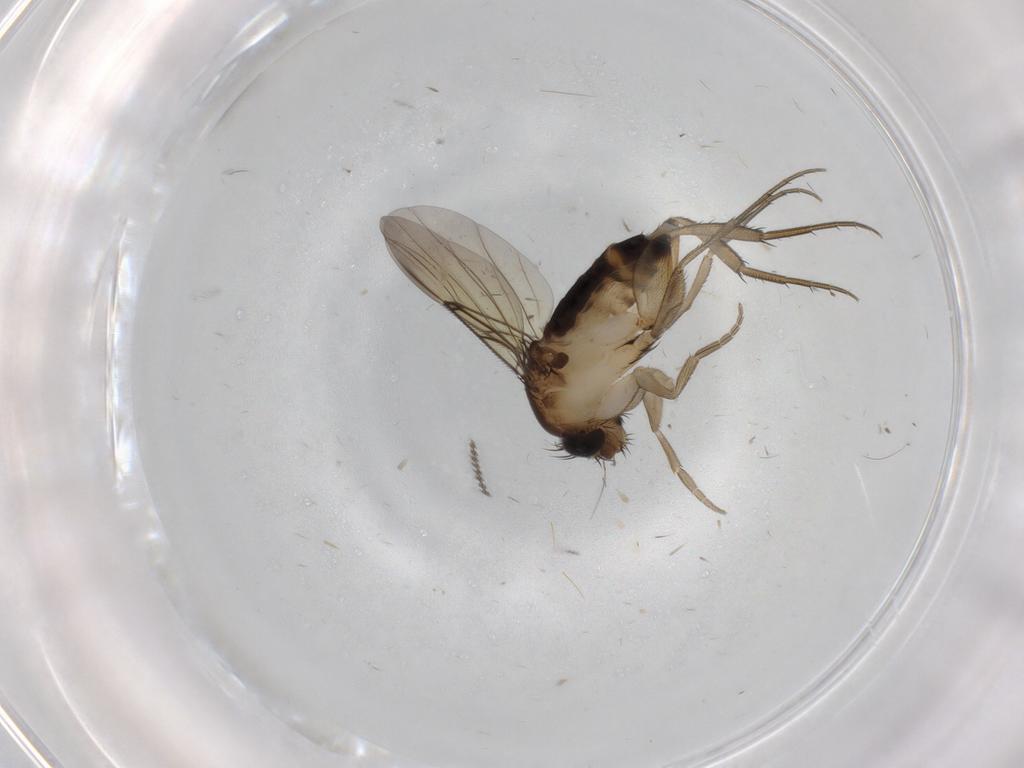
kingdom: Animalia
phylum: Arthropoda
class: Insecta
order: Diptera
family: Cecidomyiidae
